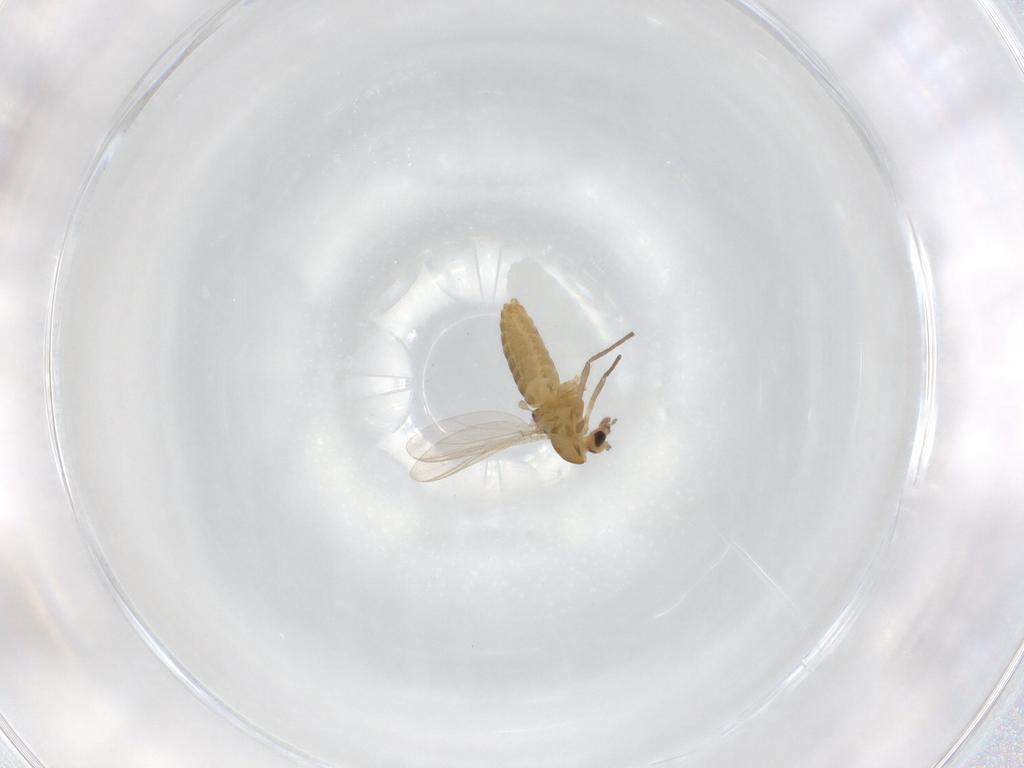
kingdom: Animalia
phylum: Arthropoda
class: Insecta
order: Diptera
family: Chironomidae
